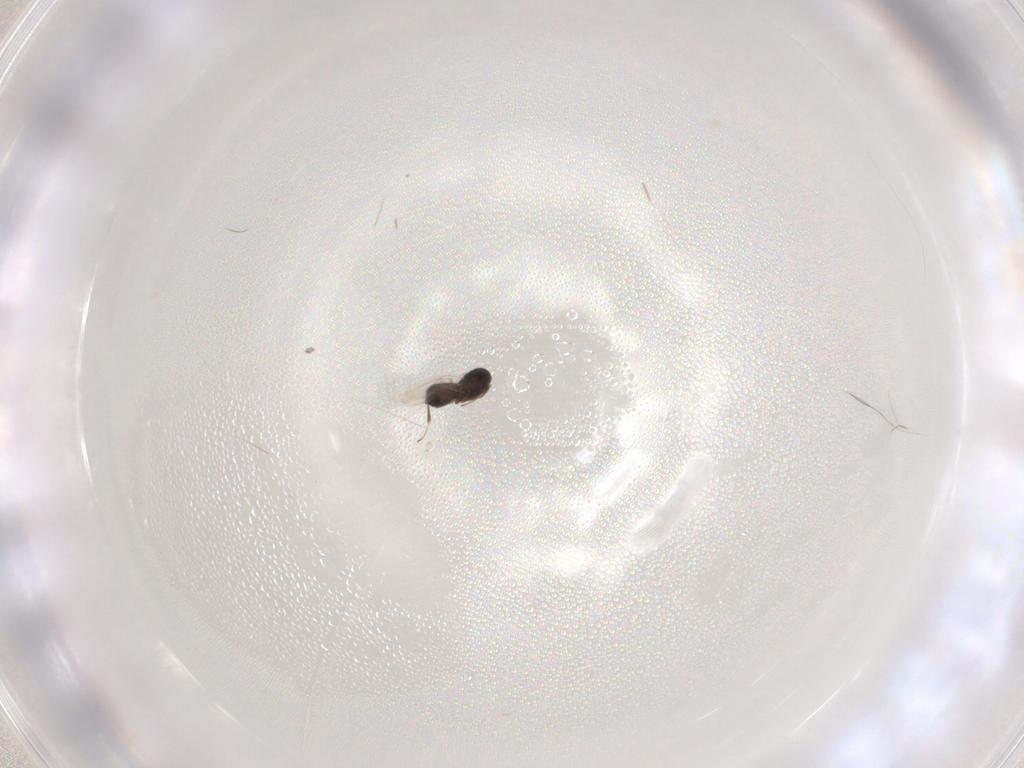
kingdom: Animalia
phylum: Arthropoda
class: Insecta
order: Hymenoptera
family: Scelionidae
